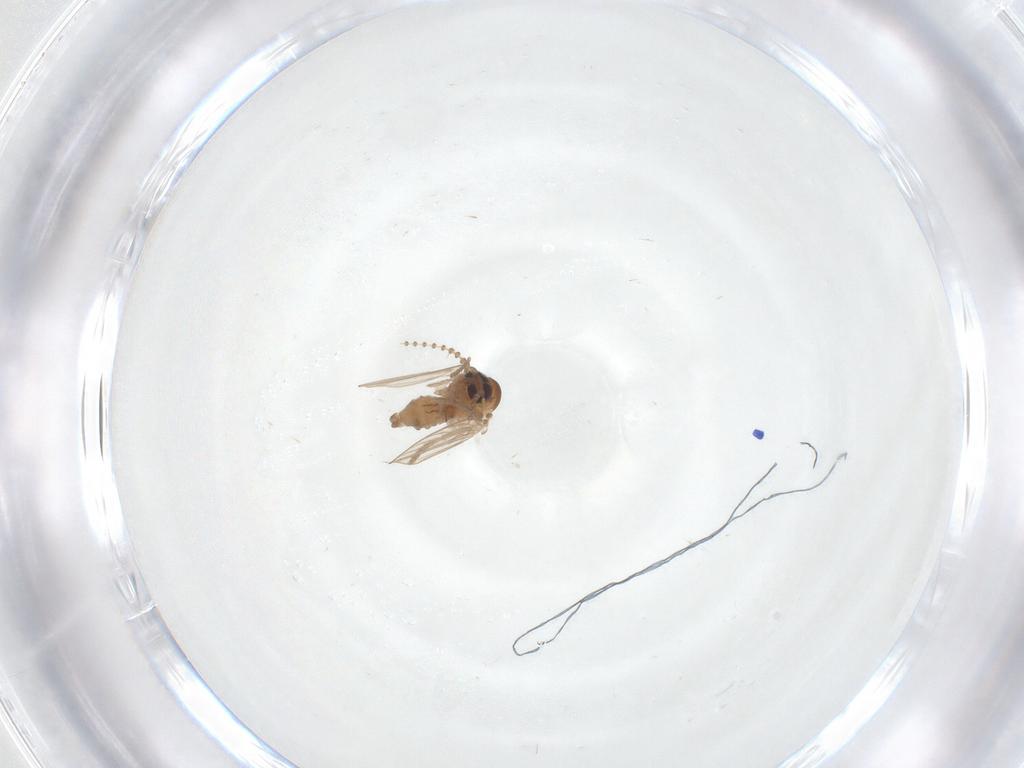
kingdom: Animalia
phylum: Arthropoda
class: Insecta
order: Diptera
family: Psychodidae
